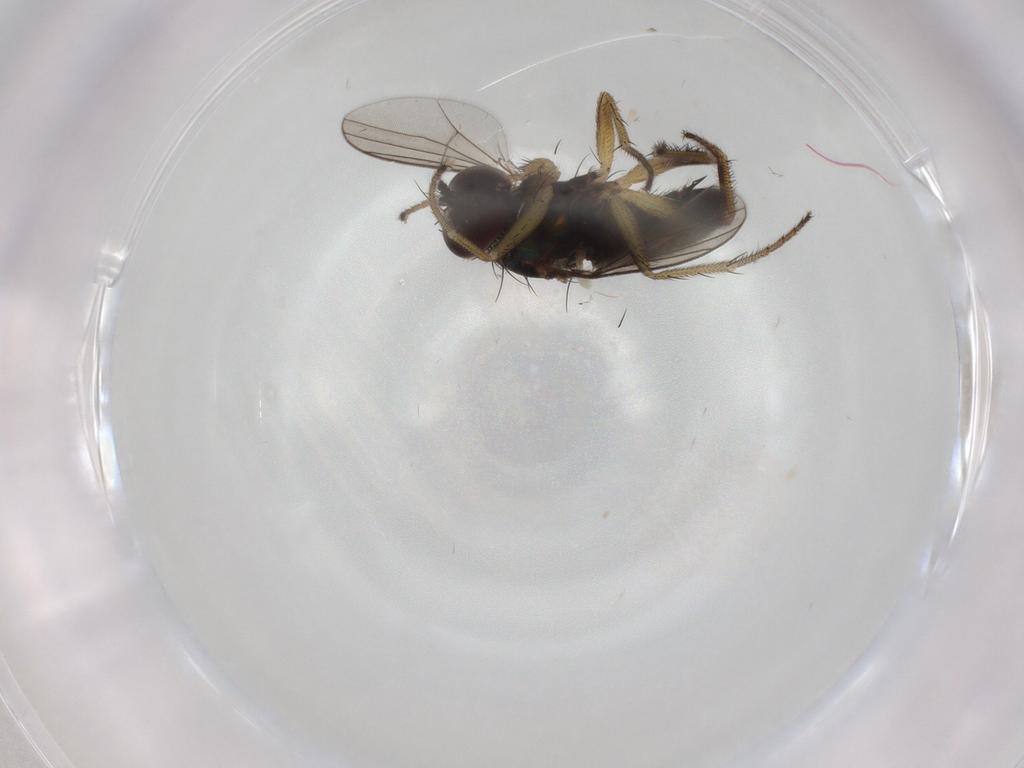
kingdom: Animalia
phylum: Arthropoda
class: Insecta
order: Diptera
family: Dolichopodidae
